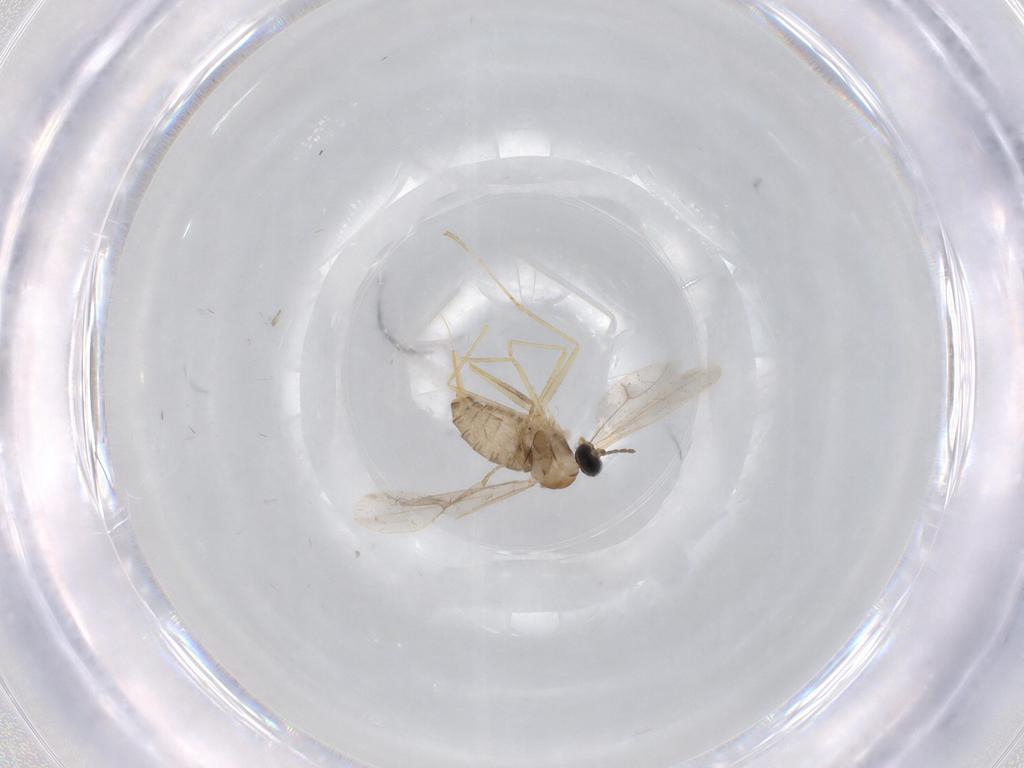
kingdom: Animalia
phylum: Arthropoda
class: Insecta
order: Diptera
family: Cecidomyiidae
